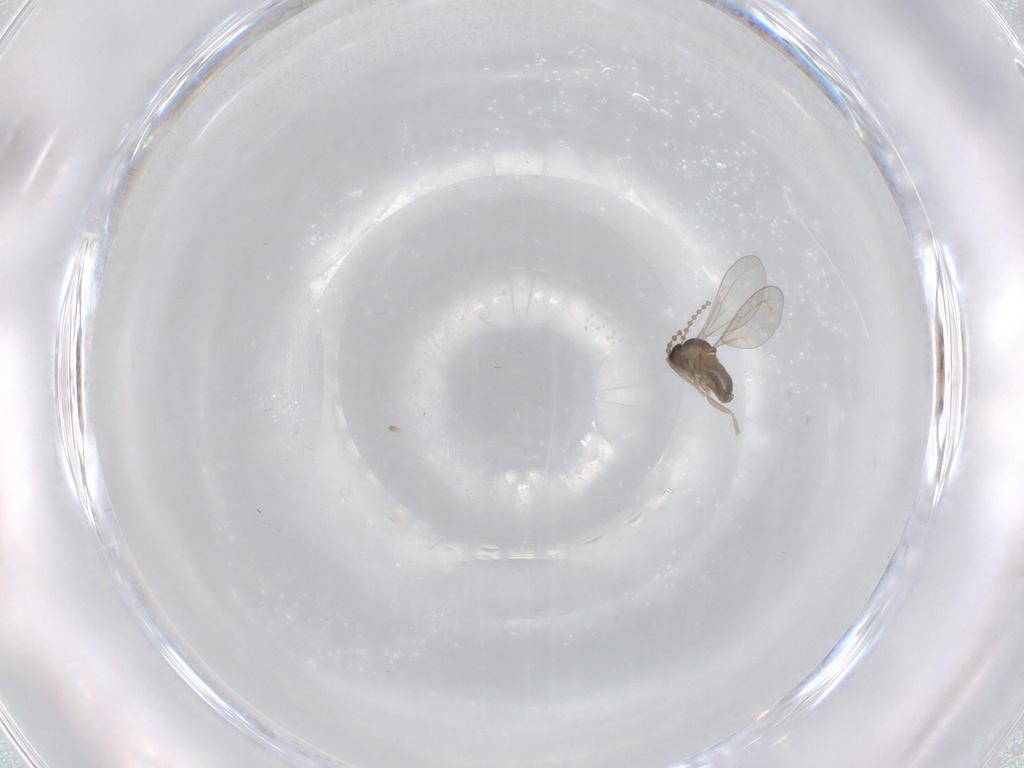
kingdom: Animalia
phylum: Arthropoda
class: Insecta
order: Diptera
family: Cecidomyiidae
